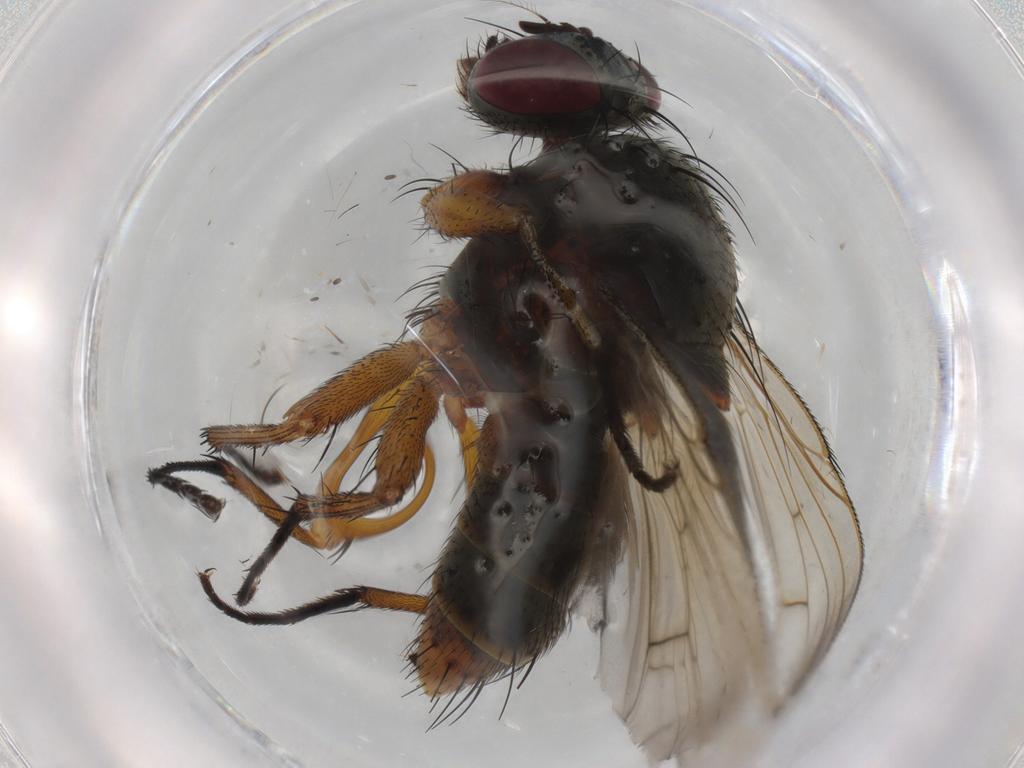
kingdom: Animalia
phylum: Arthropoda
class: Insecta
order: Diptera
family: Muscidae
